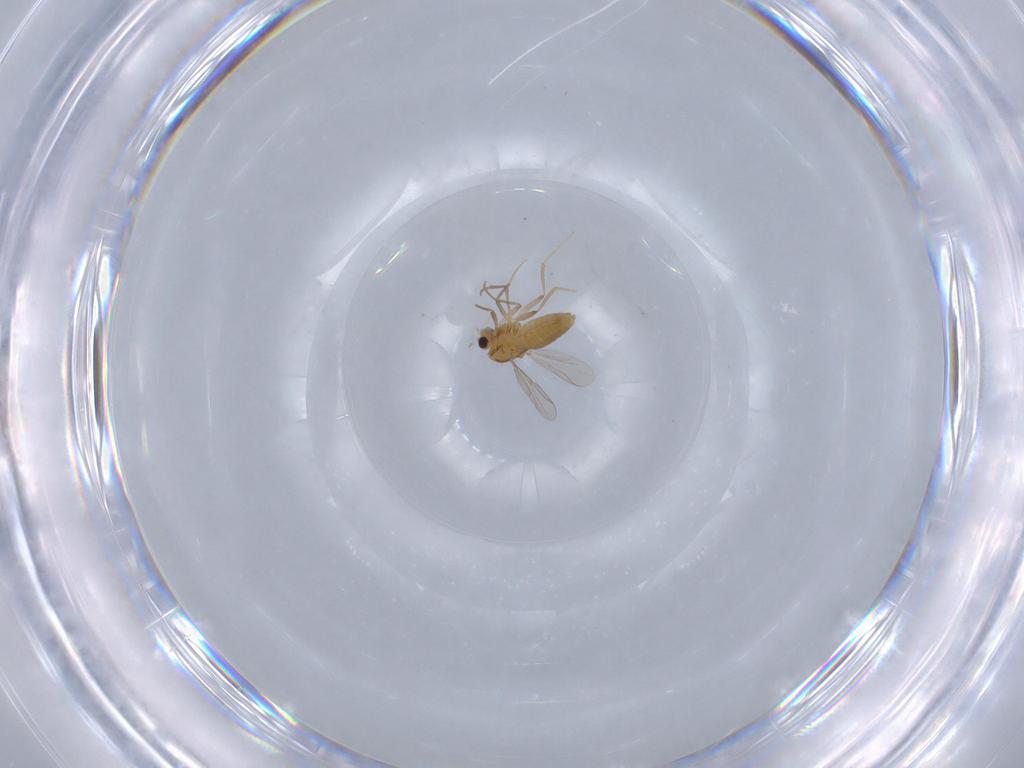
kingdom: Animalia
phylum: Arthropoda
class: Insecta
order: Diptera
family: Chironomidae
